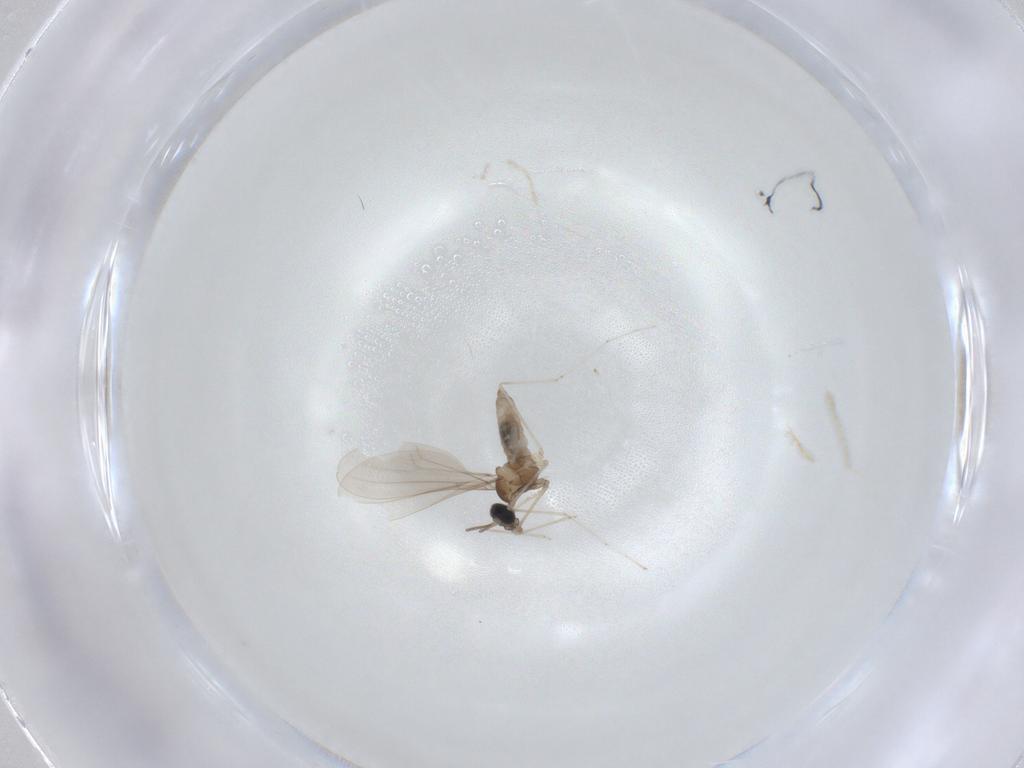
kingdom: Animalia
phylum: Arthropoda
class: Insecta
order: Diptera
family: Cecidomyiidae
